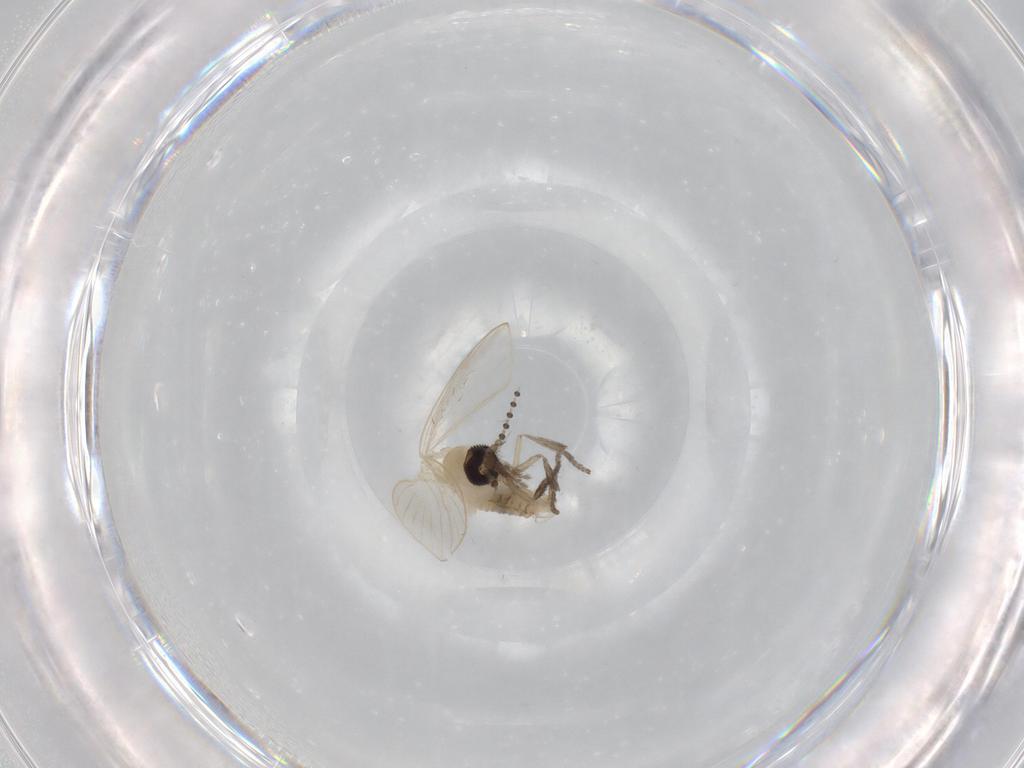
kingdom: Animalia
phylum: Arthropoda
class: Insecta
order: Diptera
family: Psychodidae
